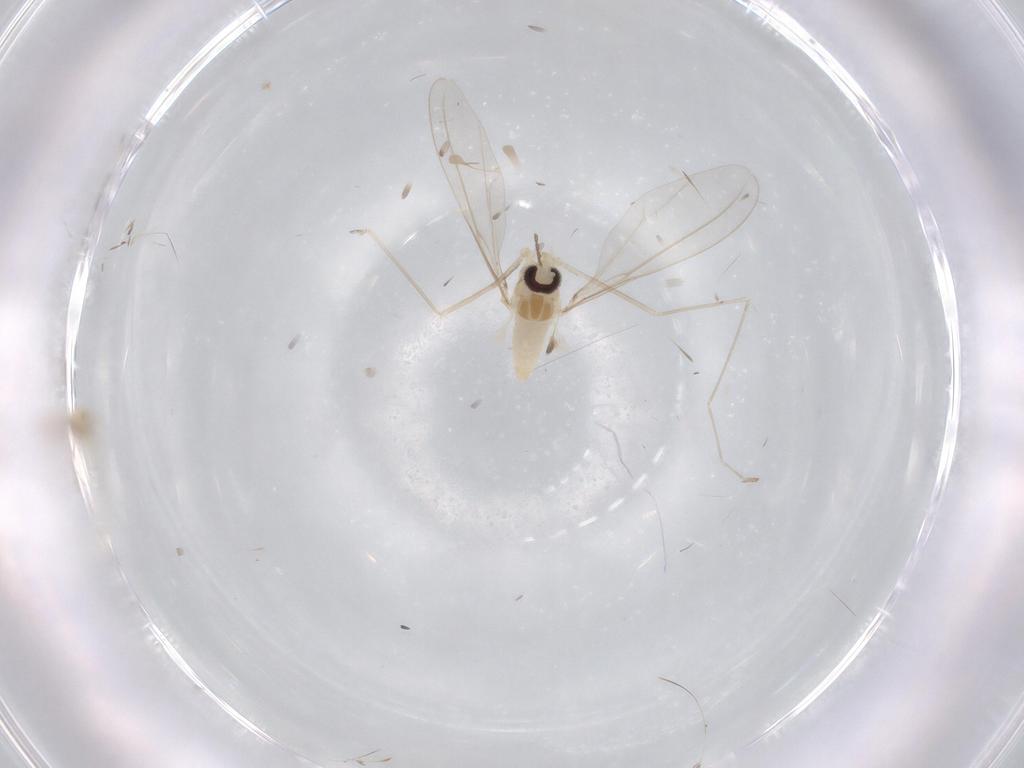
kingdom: Animalia
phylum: Arthropoda
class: Insecta
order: Diptera
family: Cecidomyiidae
